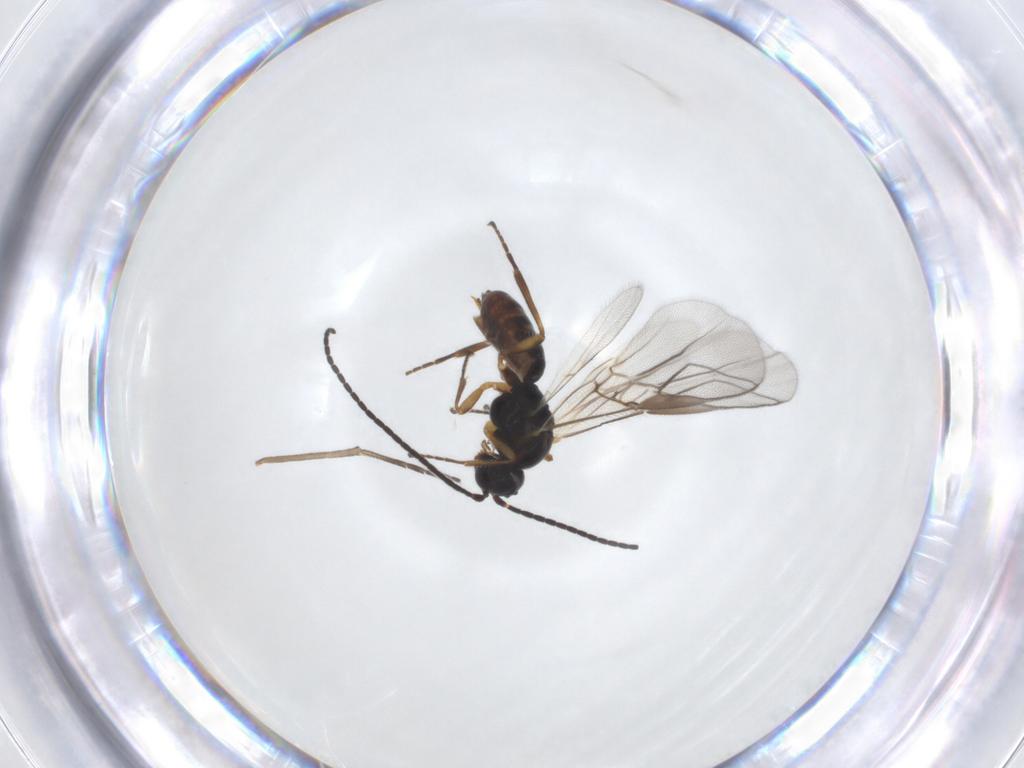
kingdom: Animalia
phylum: Arthropoda
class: Insecta
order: Hymenoptera
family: Braconidae
